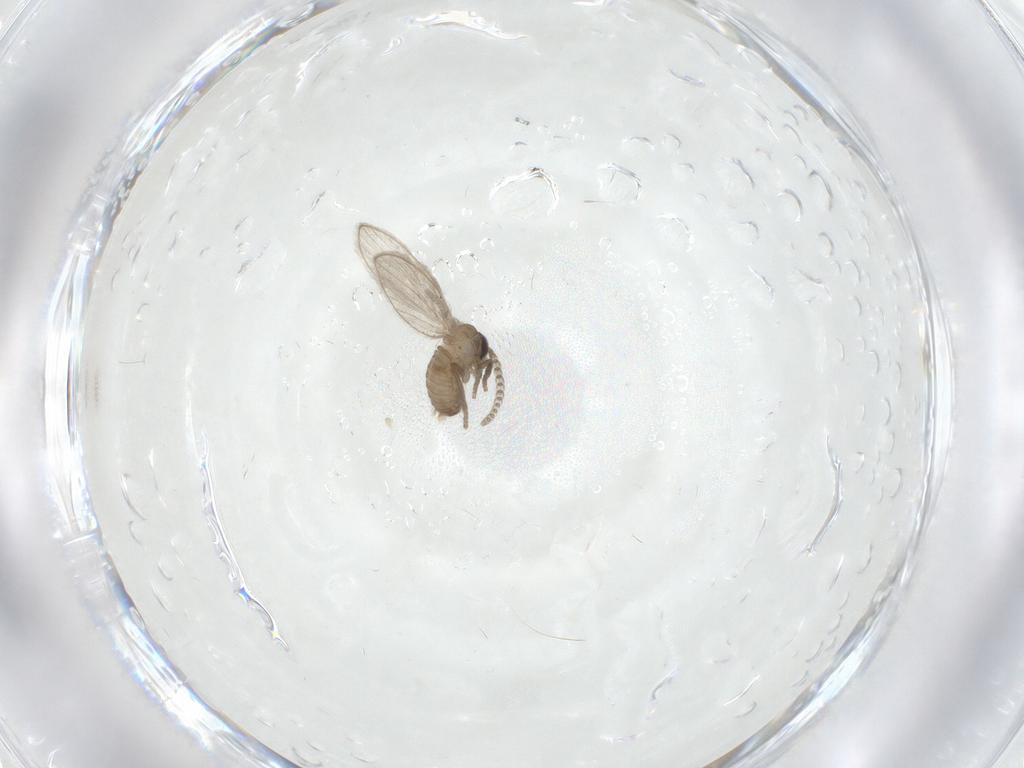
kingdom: Animalia
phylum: Arthropoda
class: Insecta
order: Diptera
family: Psychodidae
